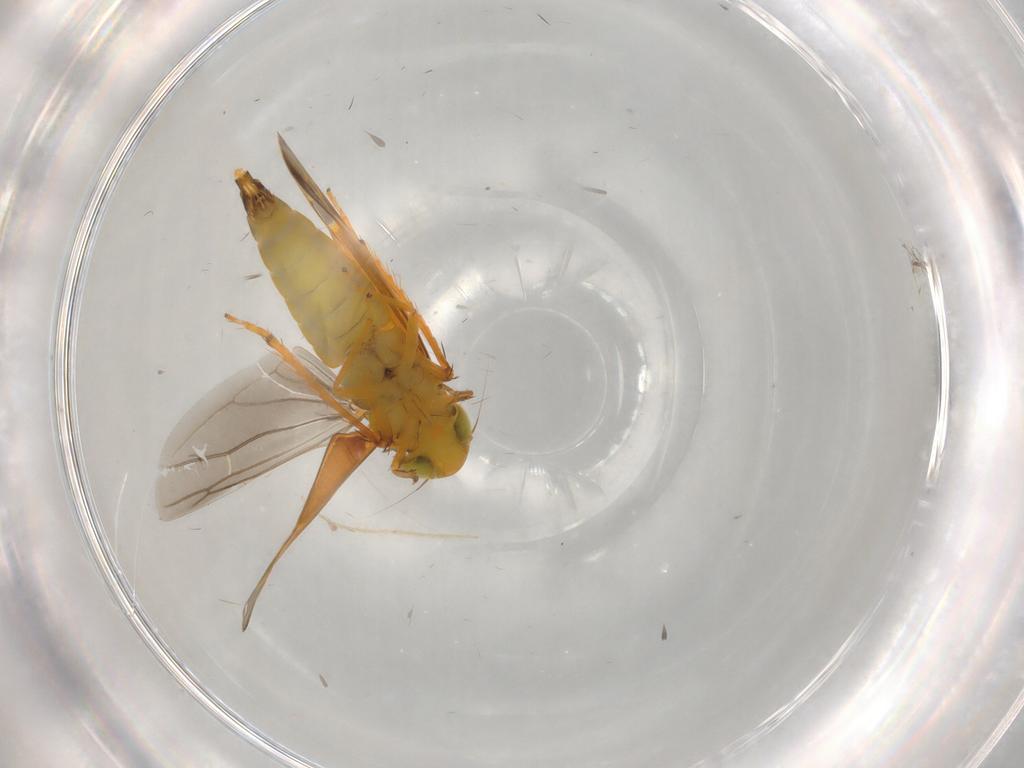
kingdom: Animalia
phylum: Arthropoda
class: Insecta
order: Hemiptera
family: Cicadellidae
